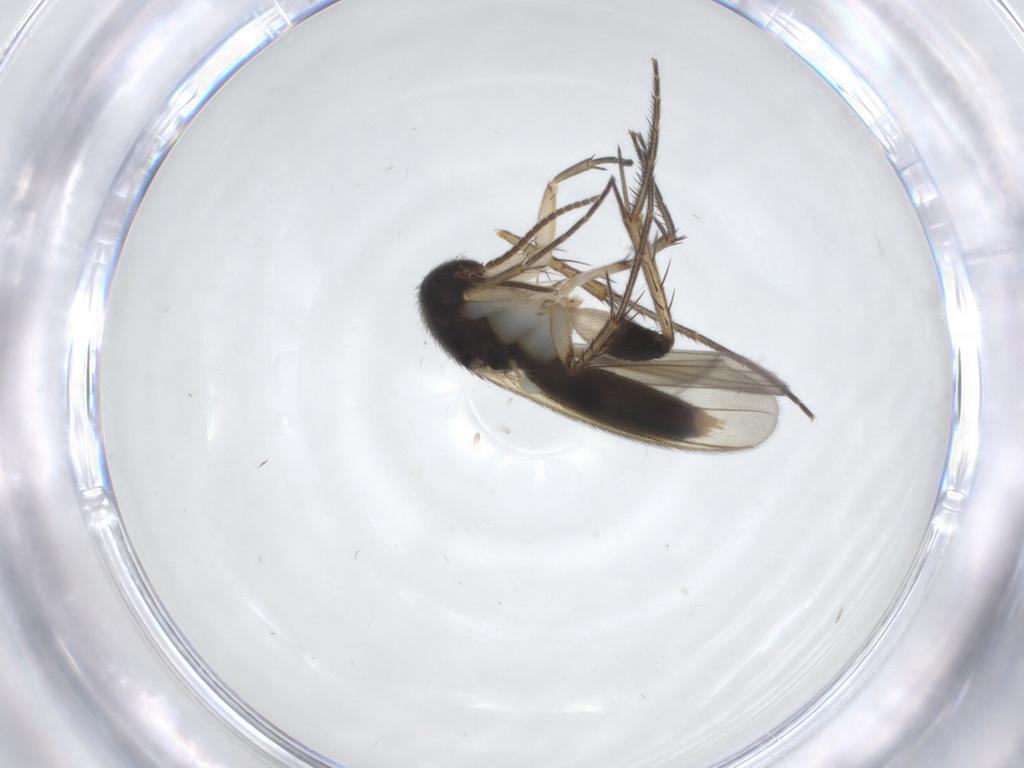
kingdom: Animalia
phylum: Arthropoda
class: Insecta
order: Diptera
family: Mycetophilidae
